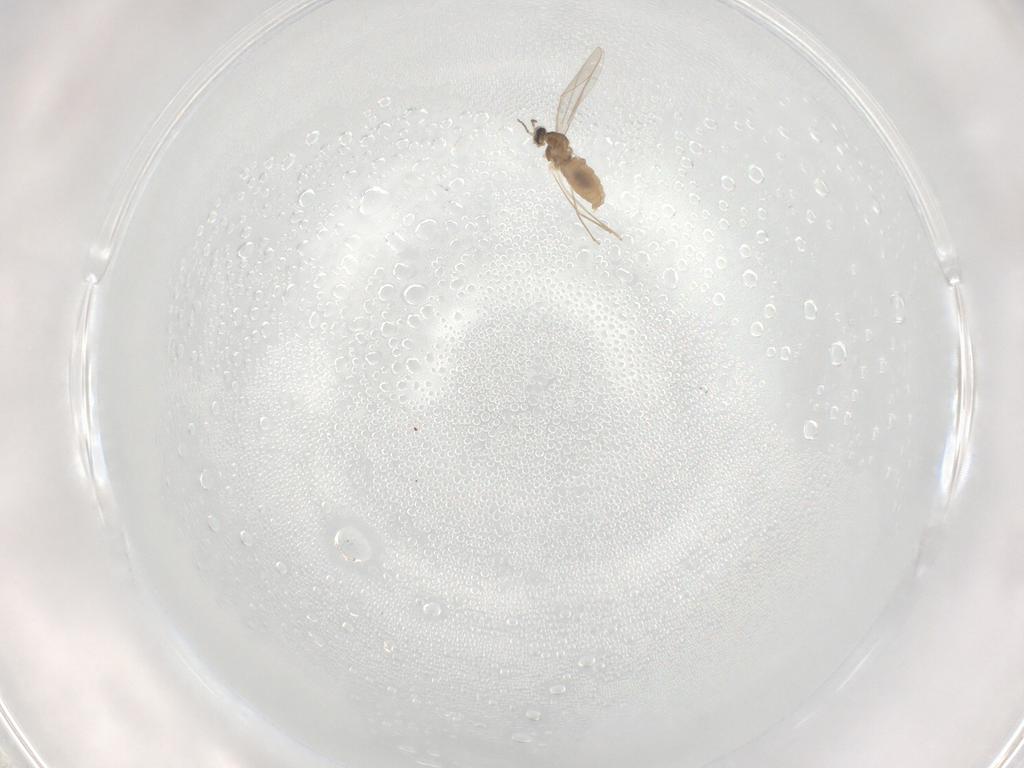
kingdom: Animalia
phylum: Arthropoda
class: Insecta
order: Diptera
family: Cecidomyiidae
